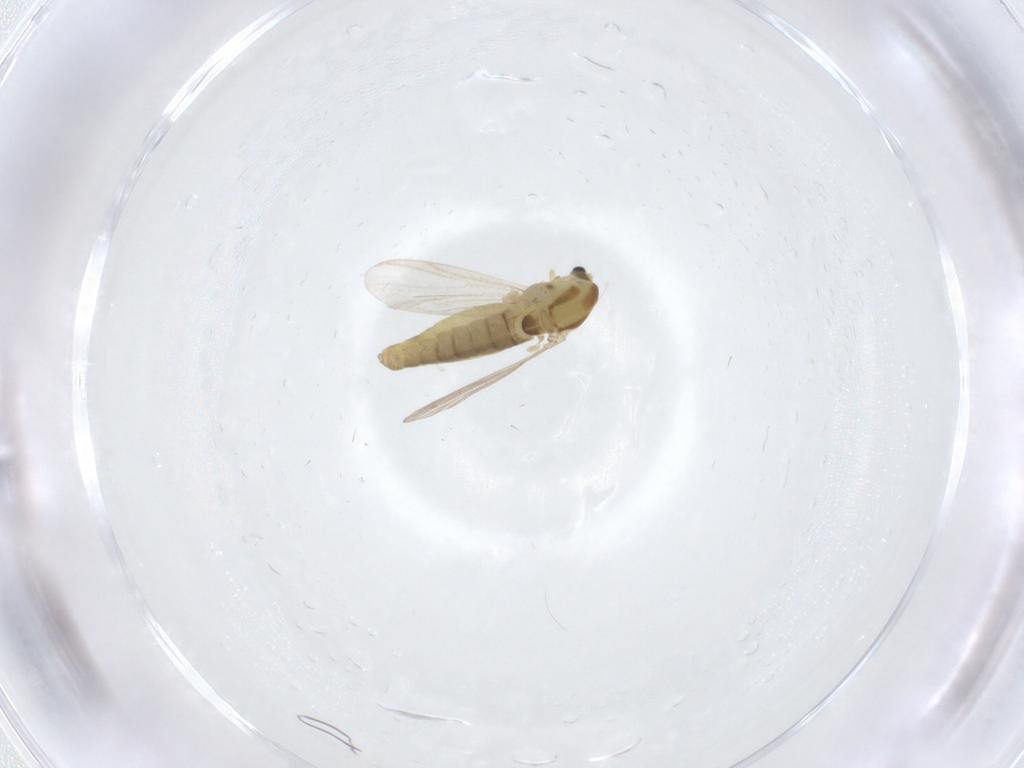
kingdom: Animalia
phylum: Arthropoda
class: Insecta
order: Diptera
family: Chironomidae
